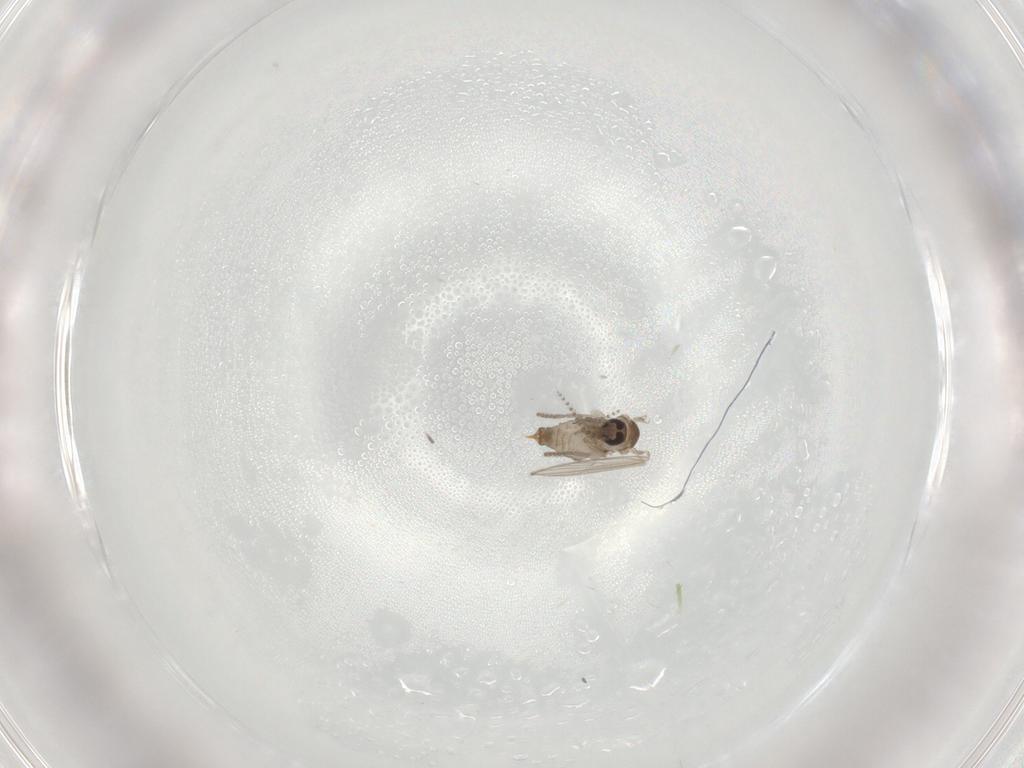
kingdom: Animalia
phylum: Arthropoda
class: Insecta
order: Diptera
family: Psychodidae
